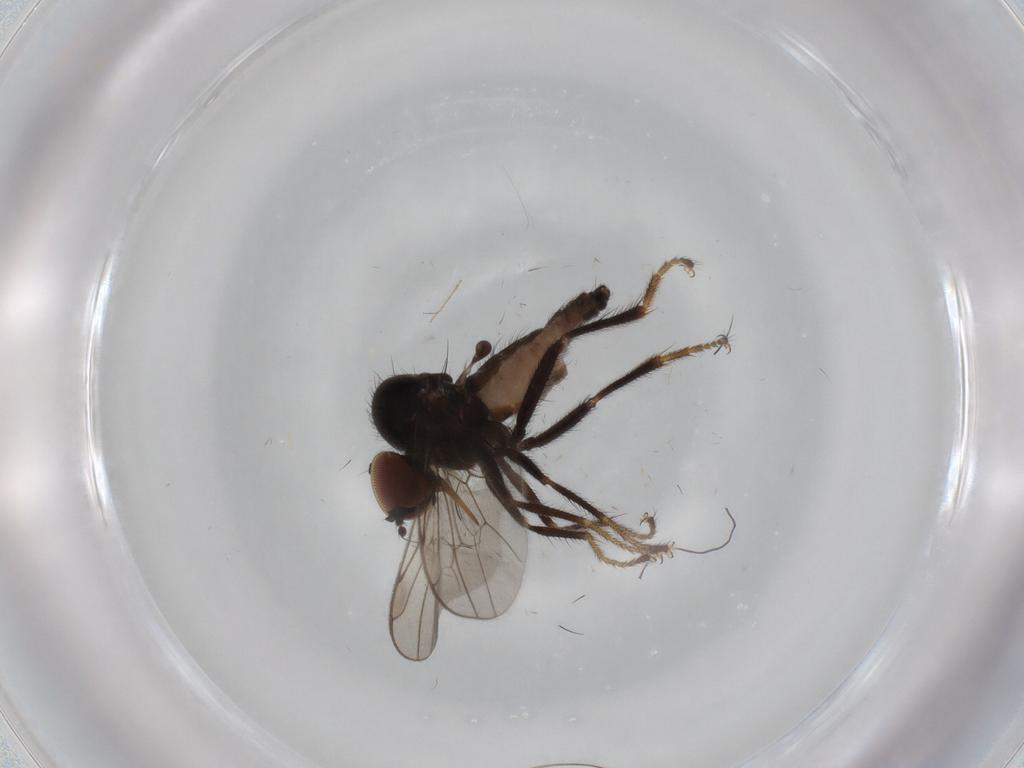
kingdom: Animalia
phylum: Arthropoda
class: Insecta
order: Diptera
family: Hybotidae
